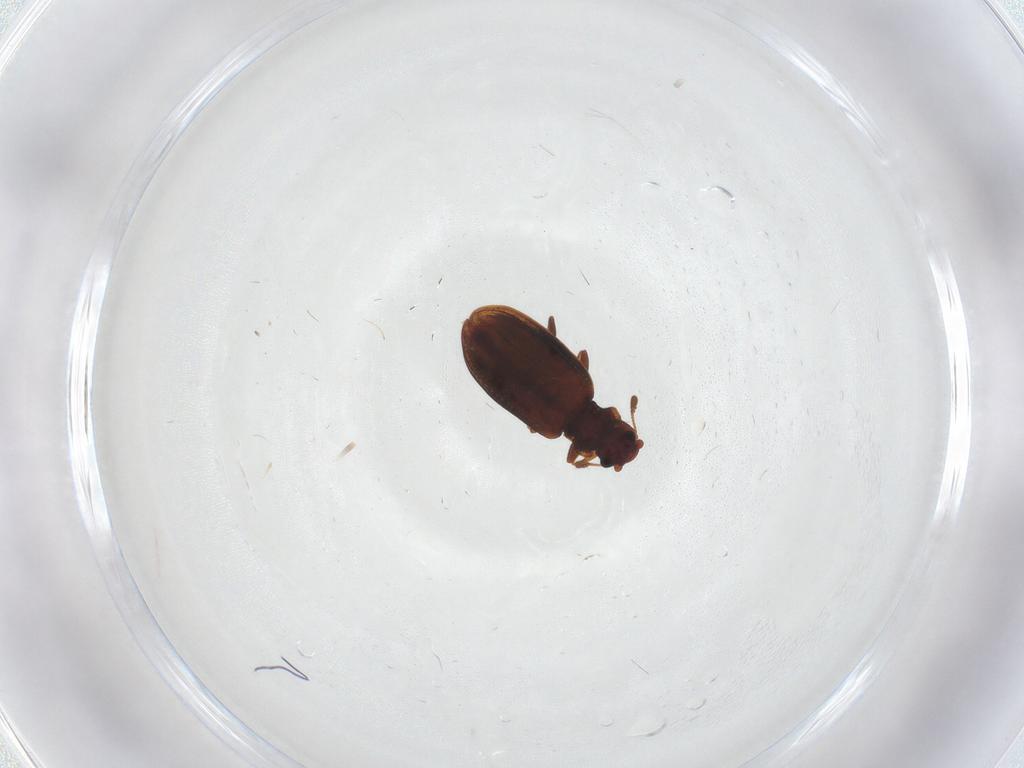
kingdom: Animalia
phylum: Arthropoda
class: Insecta
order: Coleoptera
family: Latridiidae
